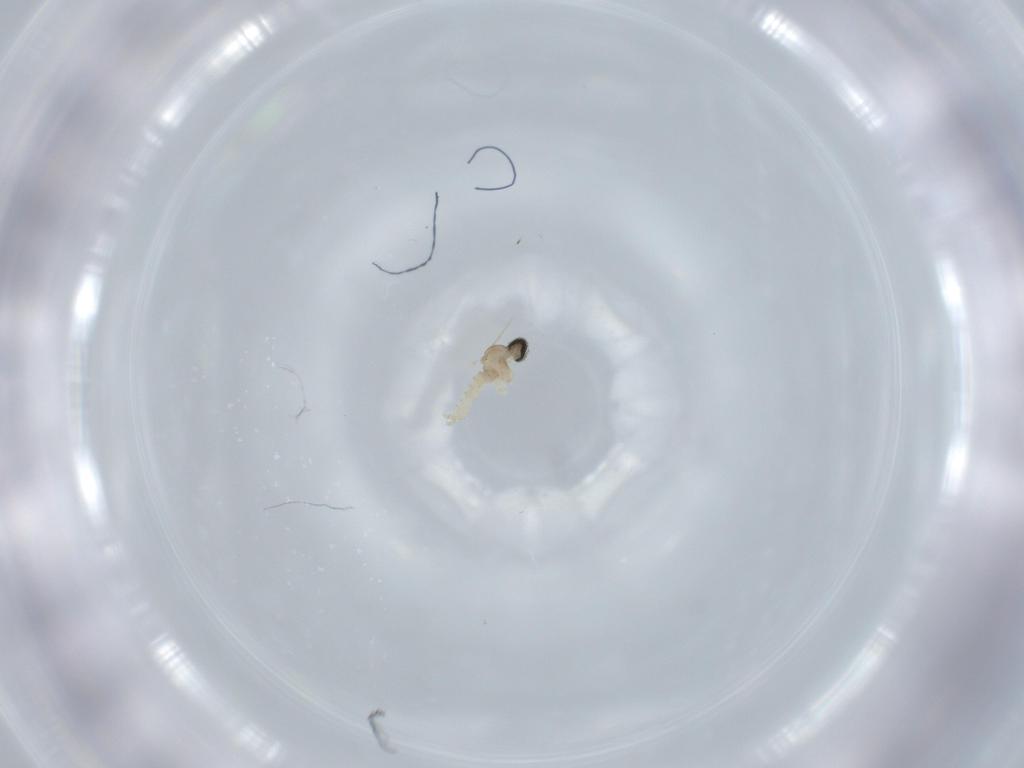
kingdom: Animalia
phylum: Arthropoda
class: Insecta
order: Diptera
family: Cecidomyiidae
